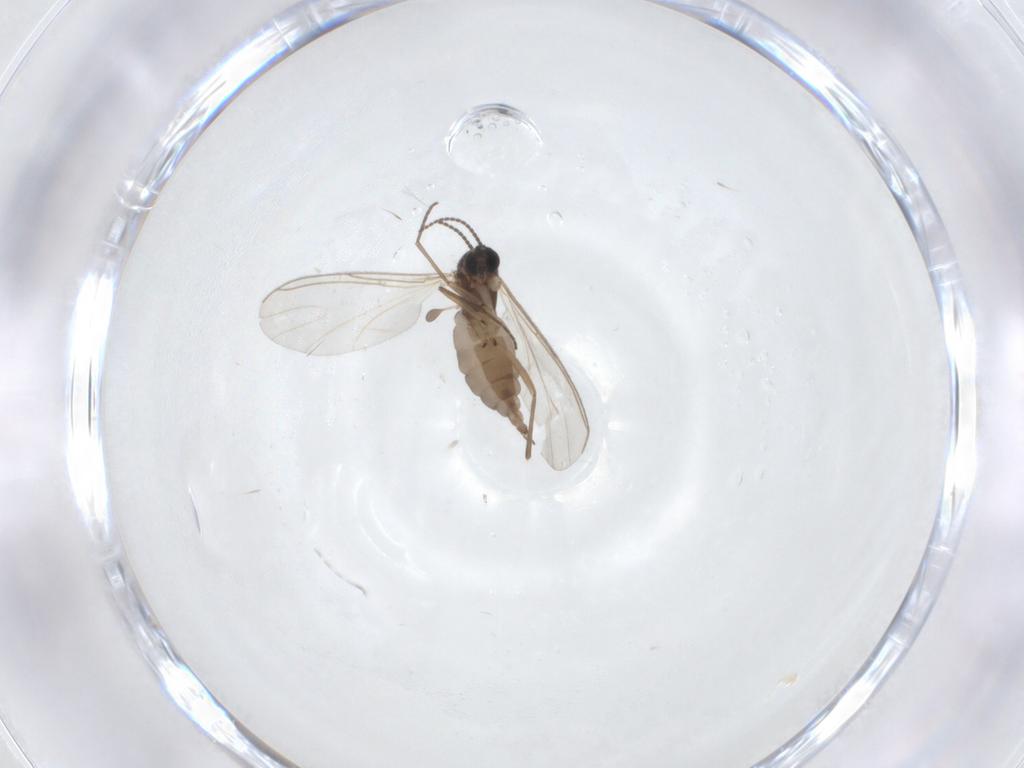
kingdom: Animalia
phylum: Arthropoda
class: Insecta
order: Diptera
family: Sciaridae
